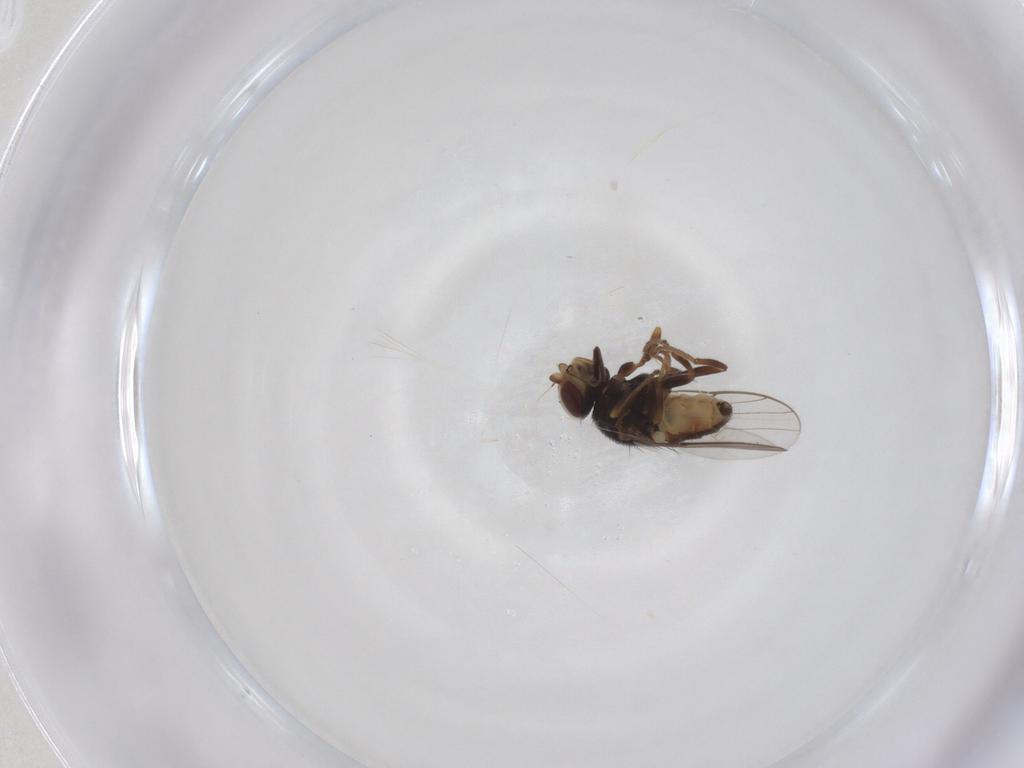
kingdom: Animalia
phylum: Arthropoda
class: Insecta
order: Diptera
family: Chloropidae
